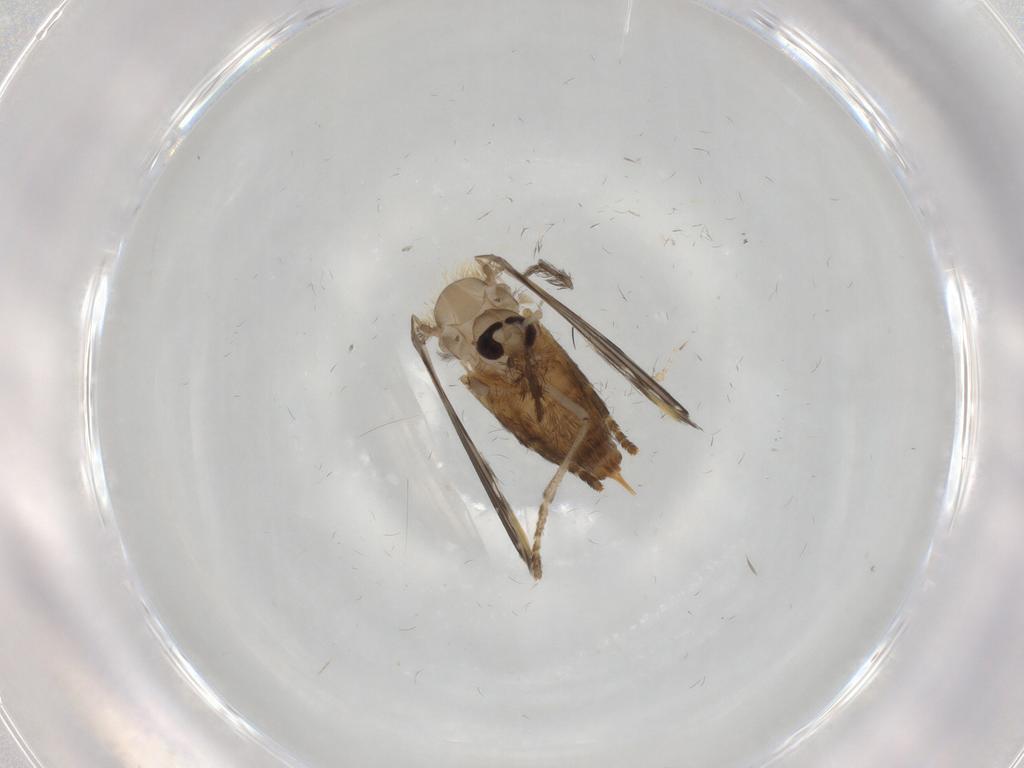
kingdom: Animalia
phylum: Arthropoda
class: Insecta
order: Diptera
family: Psychodidae
